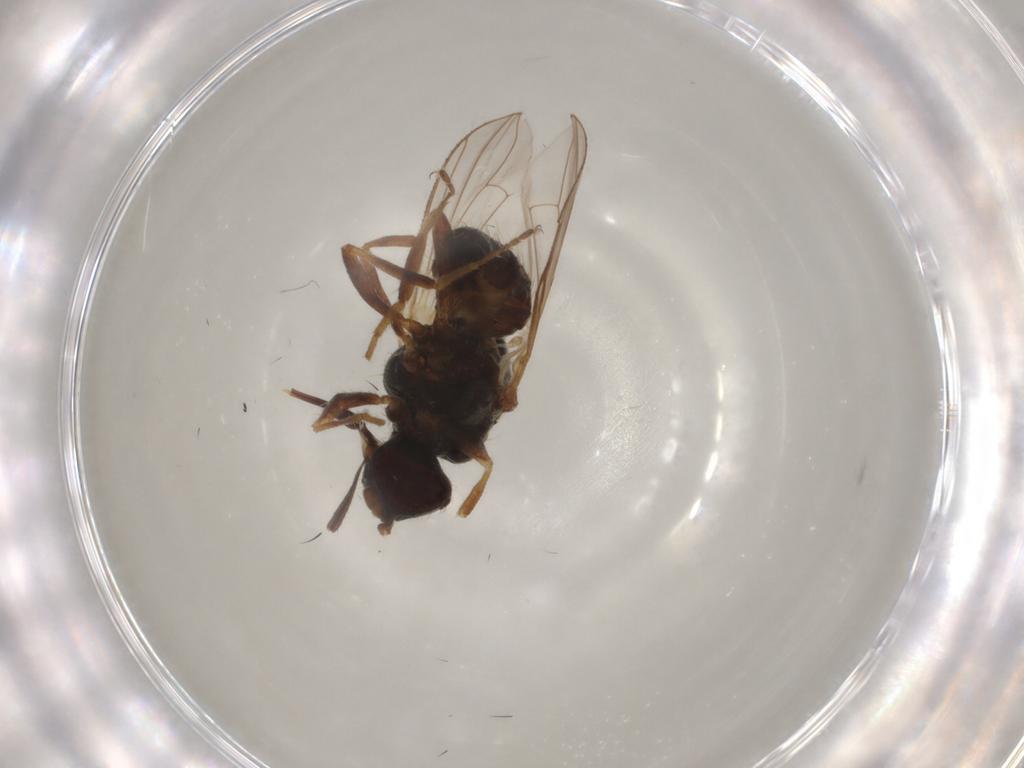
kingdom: Animalia
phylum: Arthropoda
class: Insecta
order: Diptera
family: Muscidae
